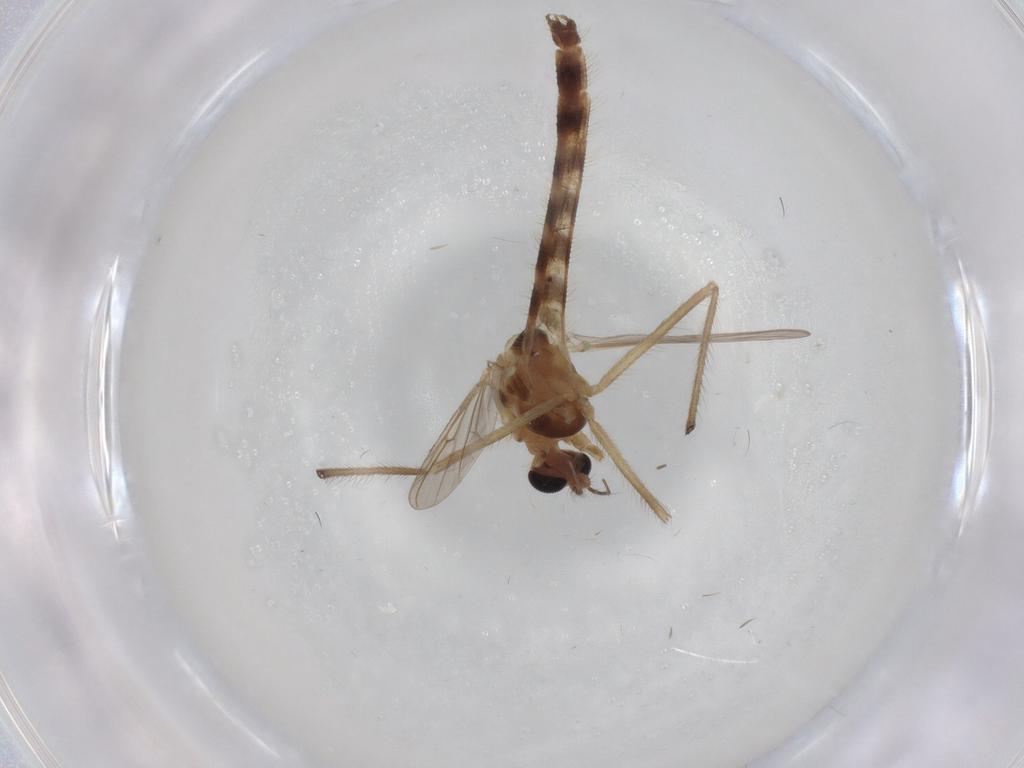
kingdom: Animalia
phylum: Arthropoda
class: Insecta
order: Diptera
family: Chironomidae
